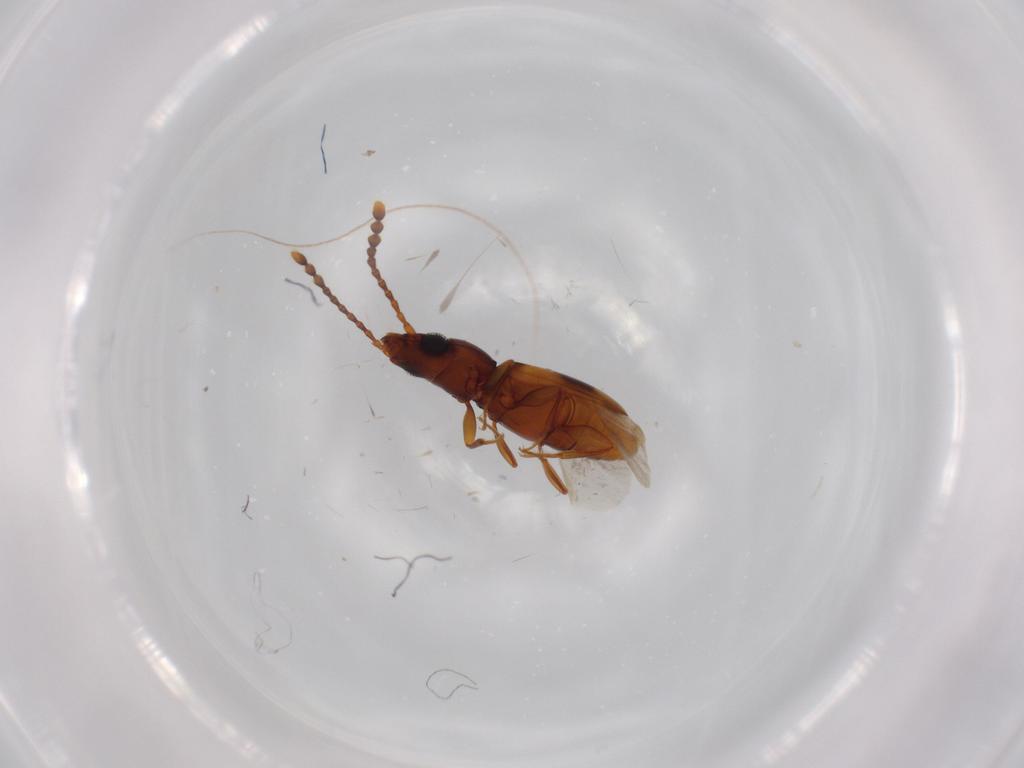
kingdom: Animalia
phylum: Arthropoda
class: Insecta
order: Coleoptera
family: Laemophloeidae
